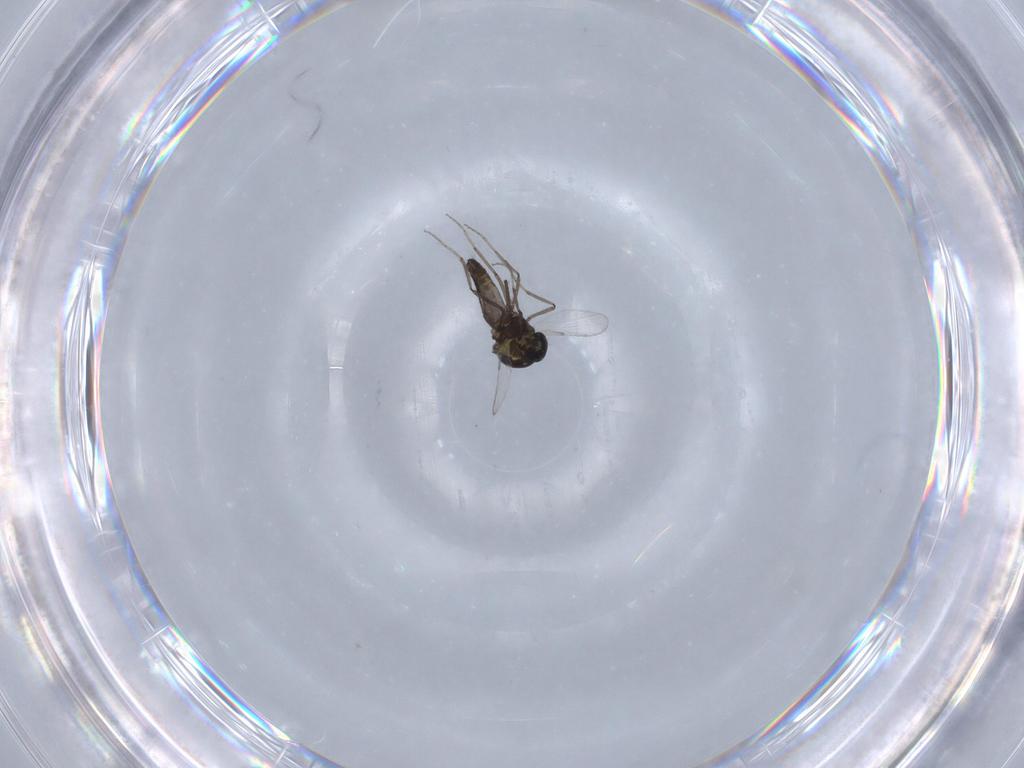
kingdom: Animalia
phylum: Arthropoda
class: Insecta
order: Diptera
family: Ceratopogonidae
